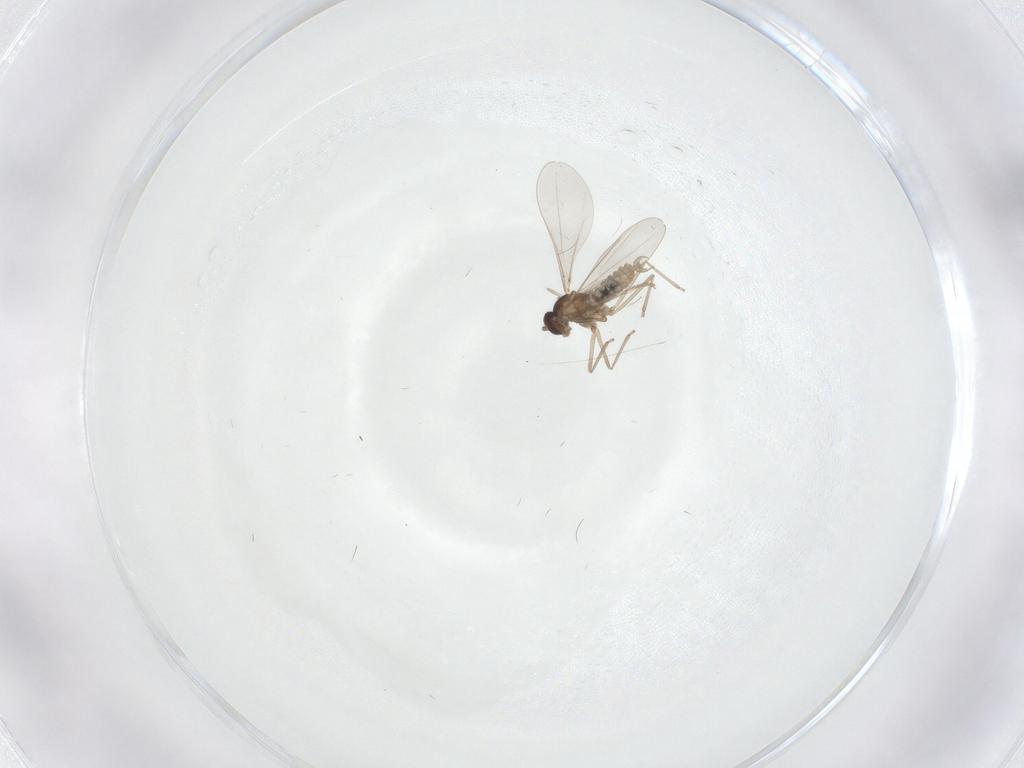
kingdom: Animalia
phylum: Arthropoda
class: Insecta
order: Diptera
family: Cecidomyiidae
